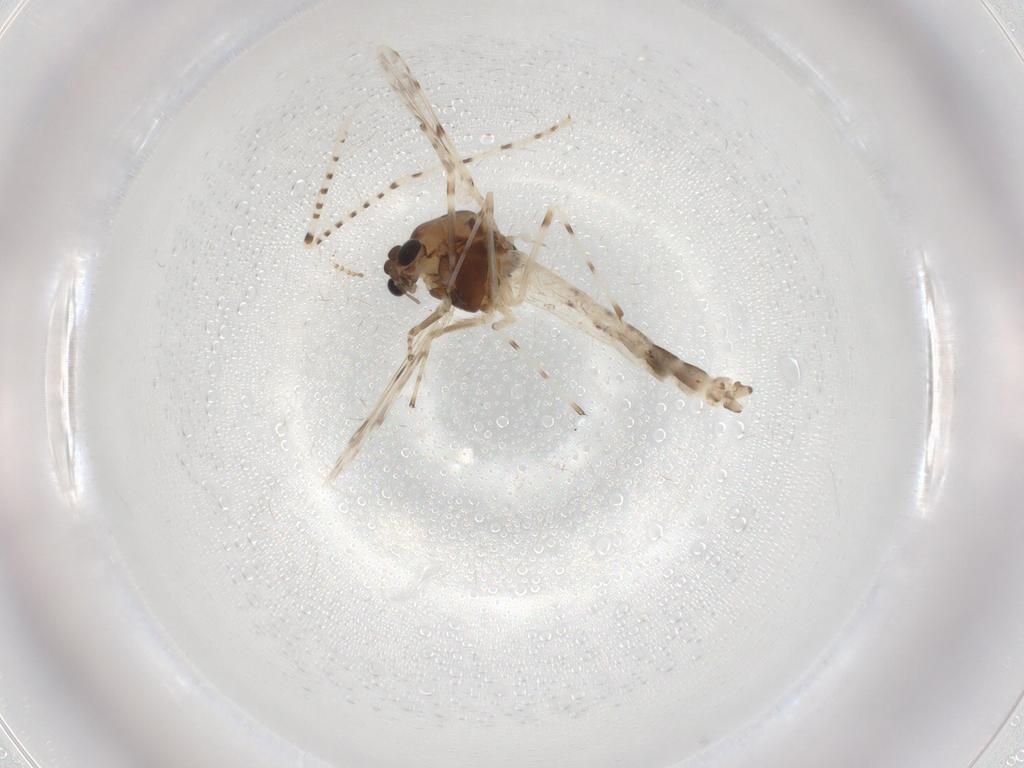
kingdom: Animalia
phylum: Arthropoda
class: Insecta
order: Diptera
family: Chironomidae
